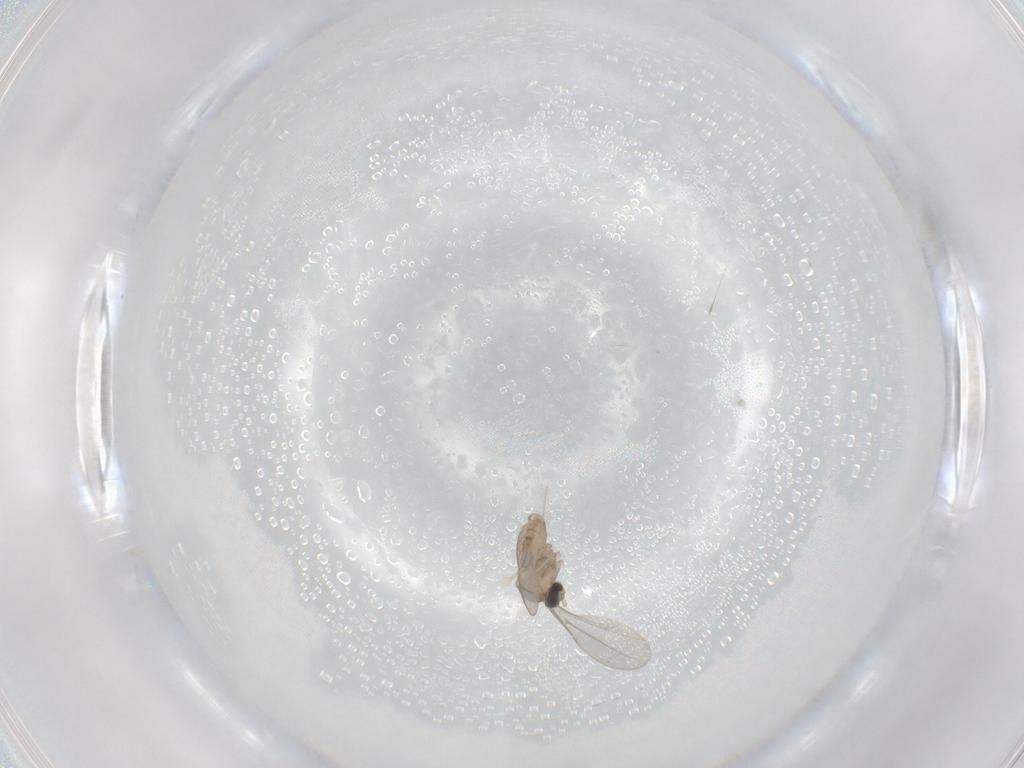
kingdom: Animalia
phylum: Arthropoda
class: Insecta
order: Diptera
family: Cecidomyiidae
